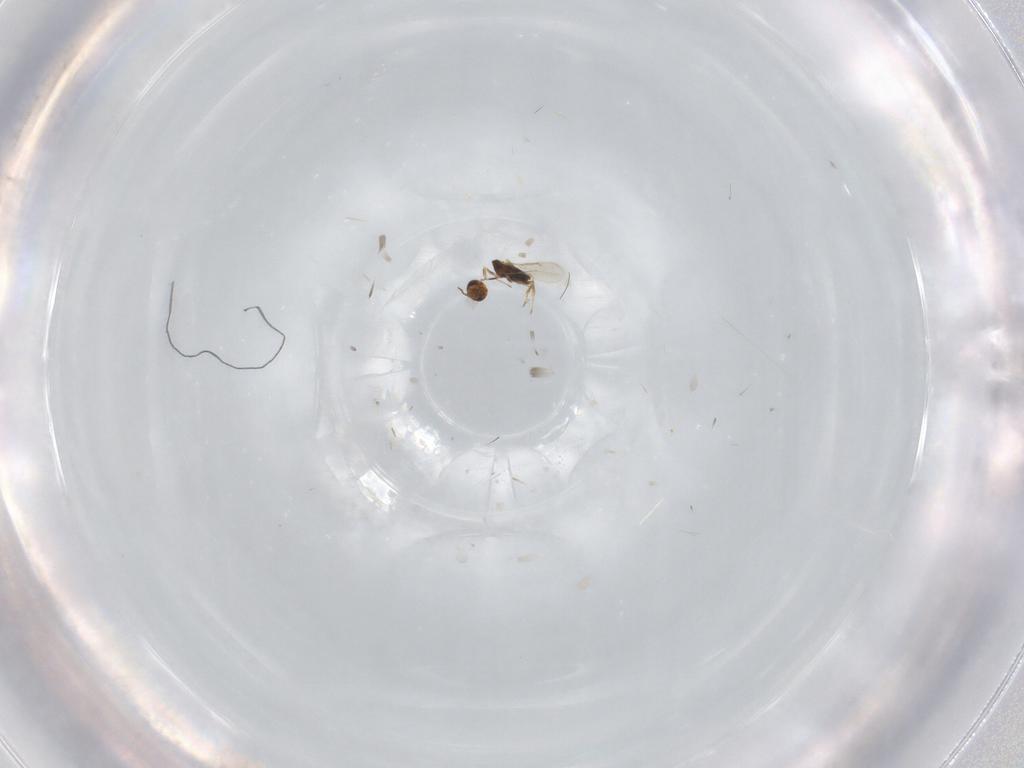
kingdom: Animalia
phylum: Arthropoda
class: Insecta
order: Hymenoptera
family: Aphelinidae
